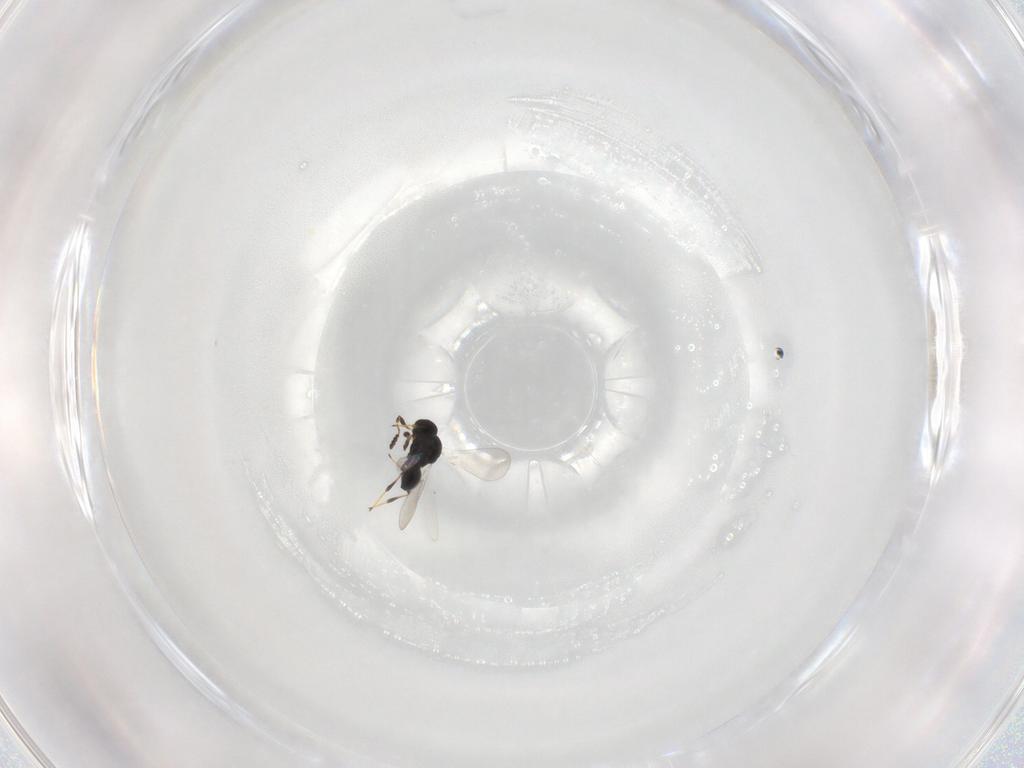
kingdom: Animalia
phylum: Arthropoda
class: Insecta
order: Hymenoptera
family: Platygastridae
